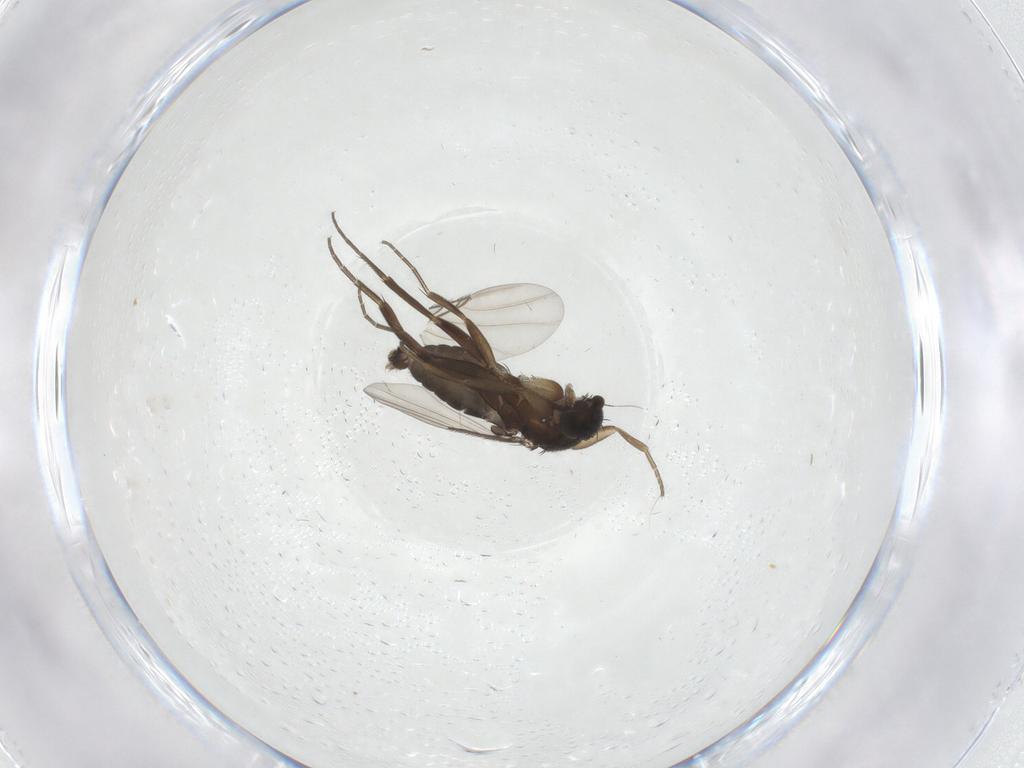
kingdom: Animalia
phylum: Arthropoda
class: Insecta
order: Diptera
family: Phoridae
